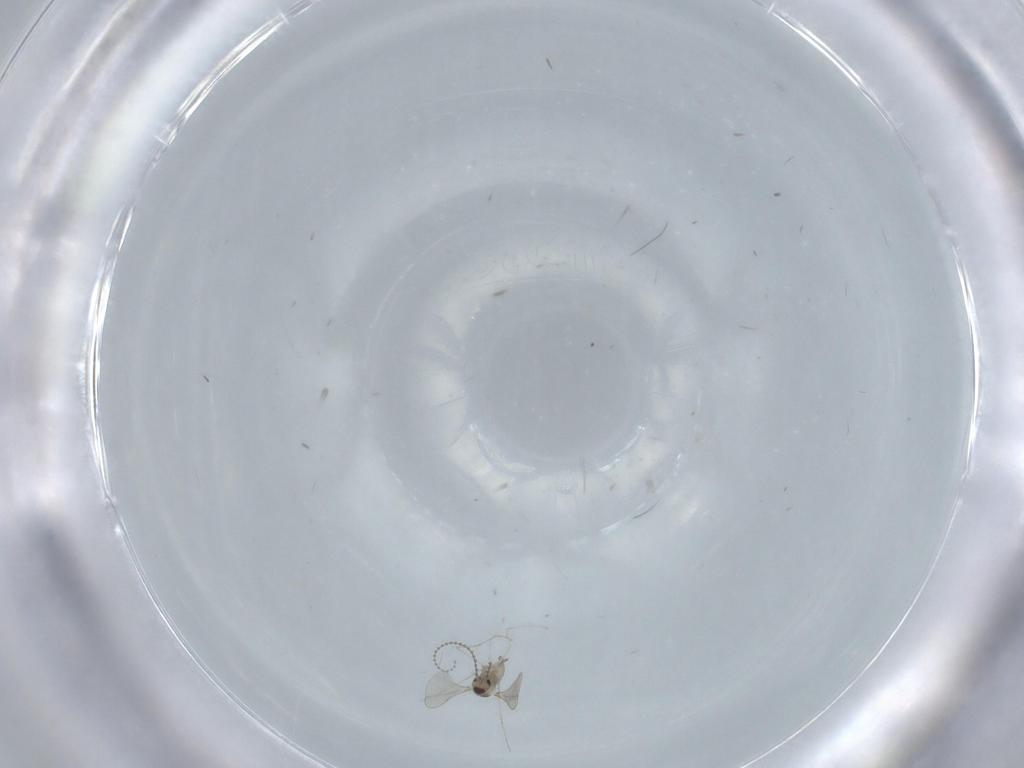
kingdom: Animalia
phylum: Arthropoda
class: Insecta
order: Diptera
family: Cecidomyiidae
